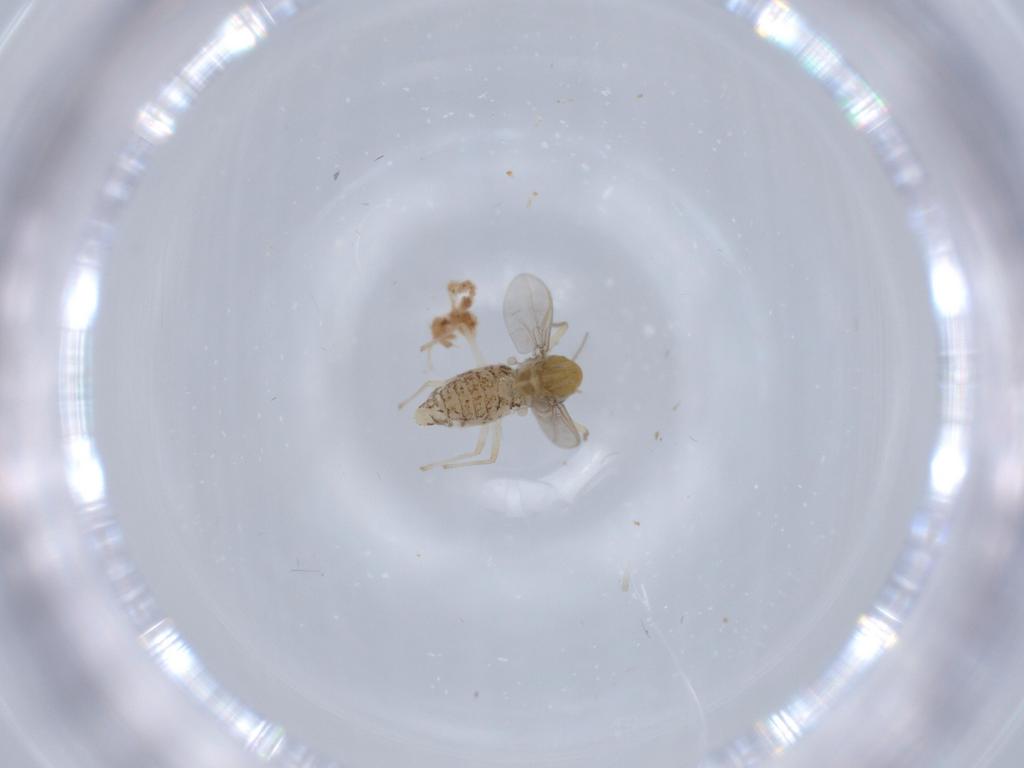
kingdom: Animalia
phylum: Arthropoda
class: Insecta
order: Diptera
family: Chironomidae
